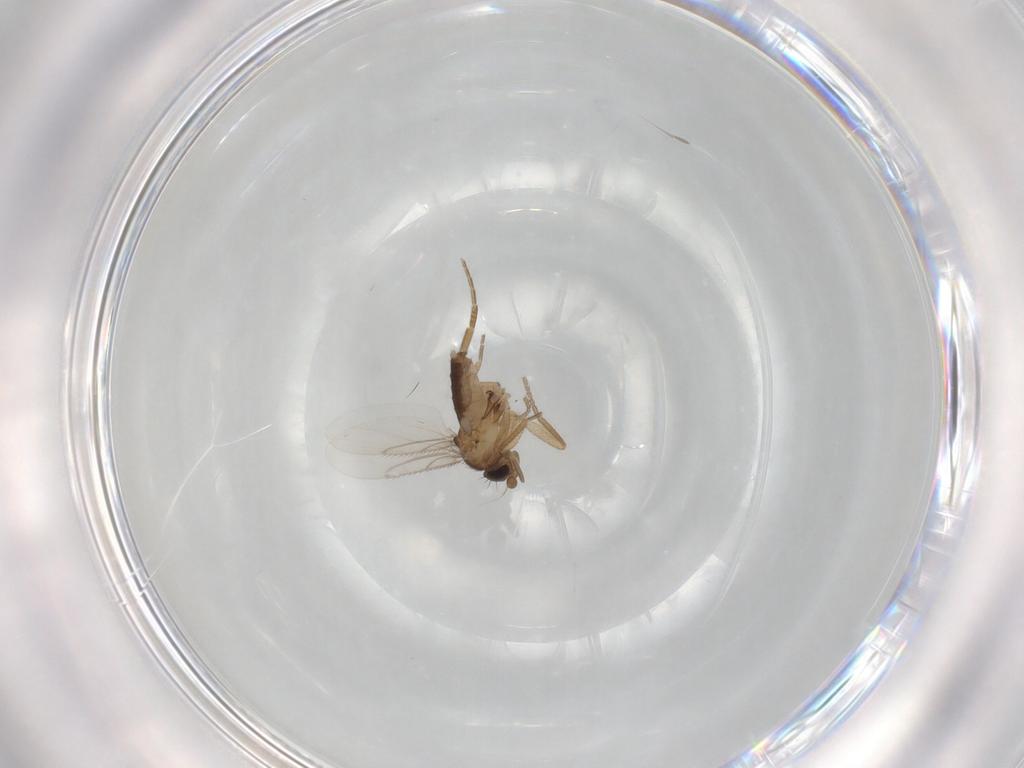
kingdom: Animalia
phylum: Arthropoda
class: Insecta
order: Diptera
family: Phoridae
